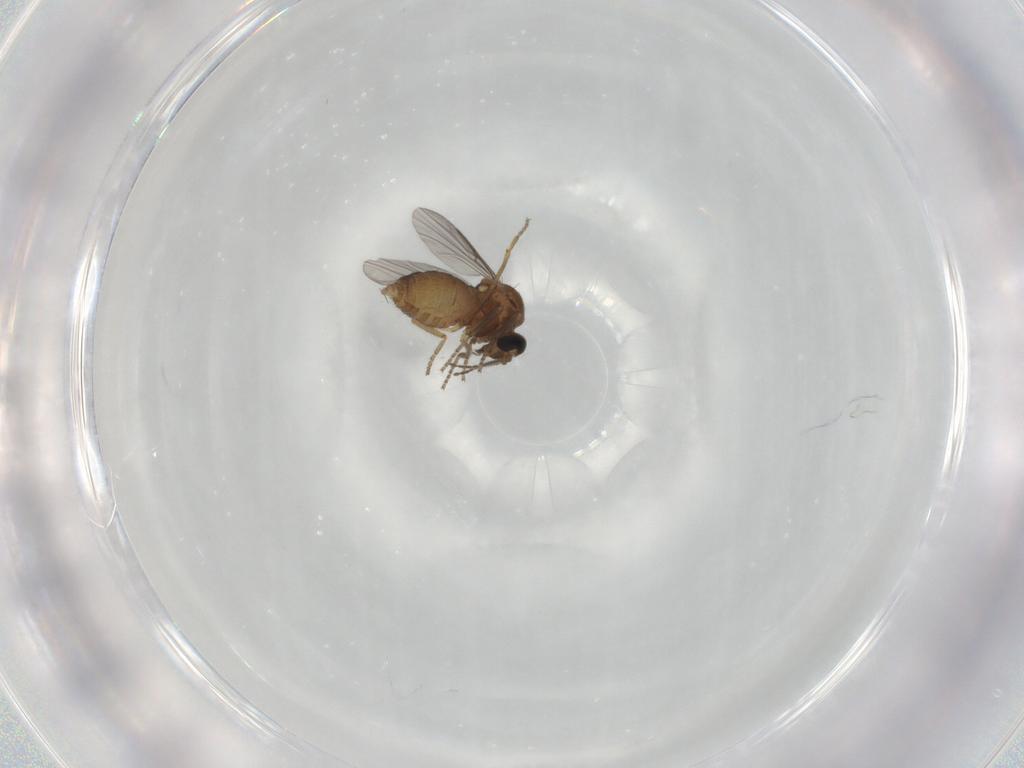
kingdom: Animalia
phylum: Arthropoda
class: Insecta
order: Diptera
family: Ceratopogonidae
